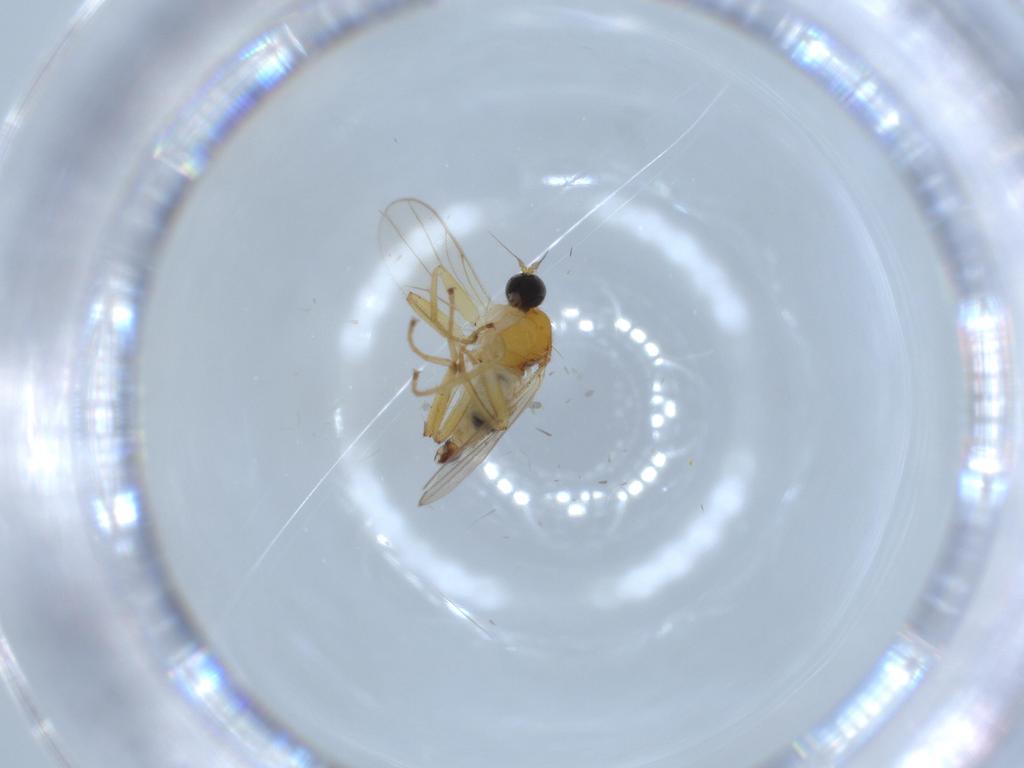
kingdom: Animalia
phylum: Arthropoda
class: Insecta
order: Diptera
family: Hybotidae
